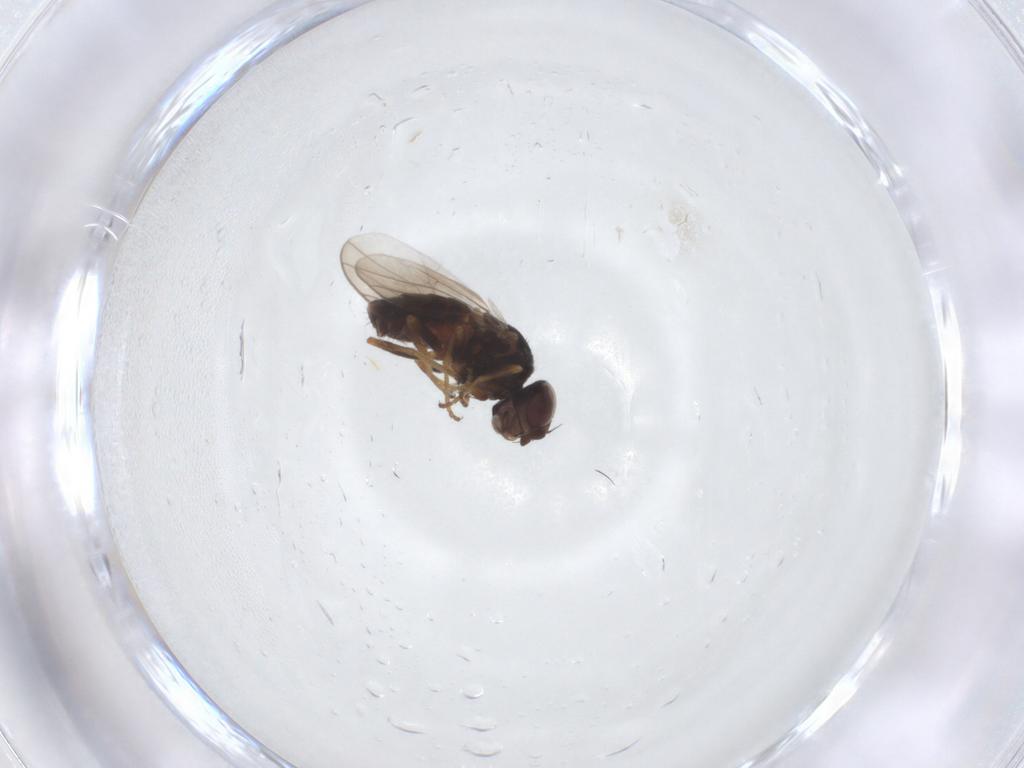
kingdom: Animalia
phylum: Arthropoda
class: Insecta
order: Diptera
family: Chloropidae
